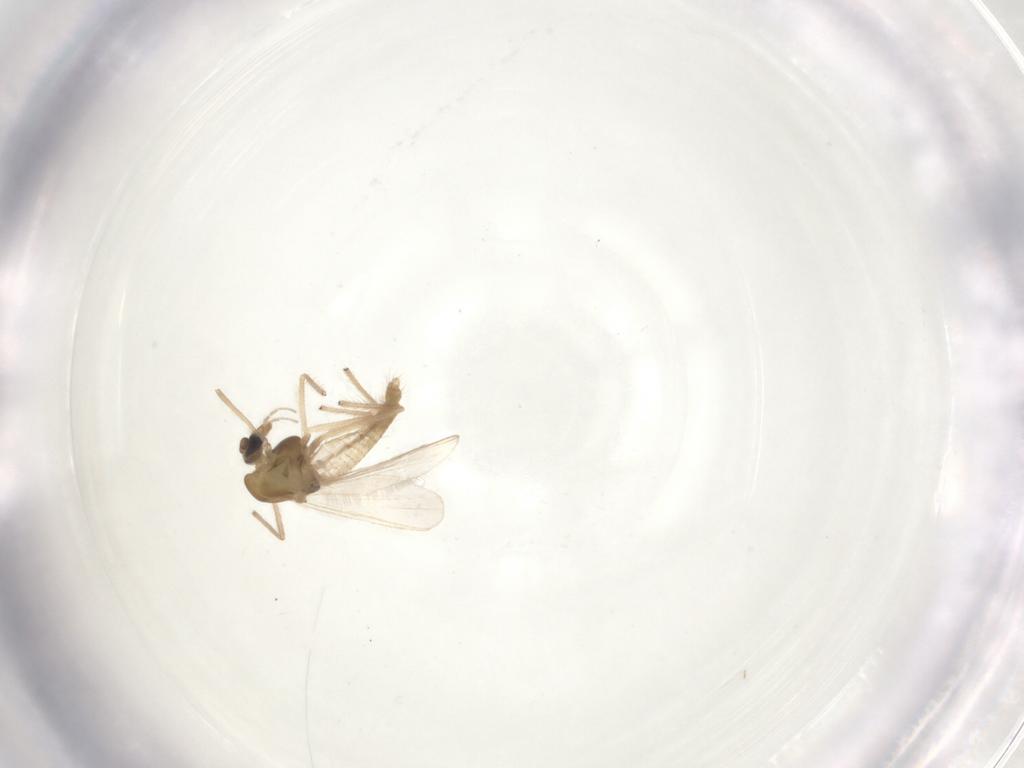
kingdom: Animalia
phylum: Arthropoda
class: Insecta
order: Diptera
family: Chironomidae
